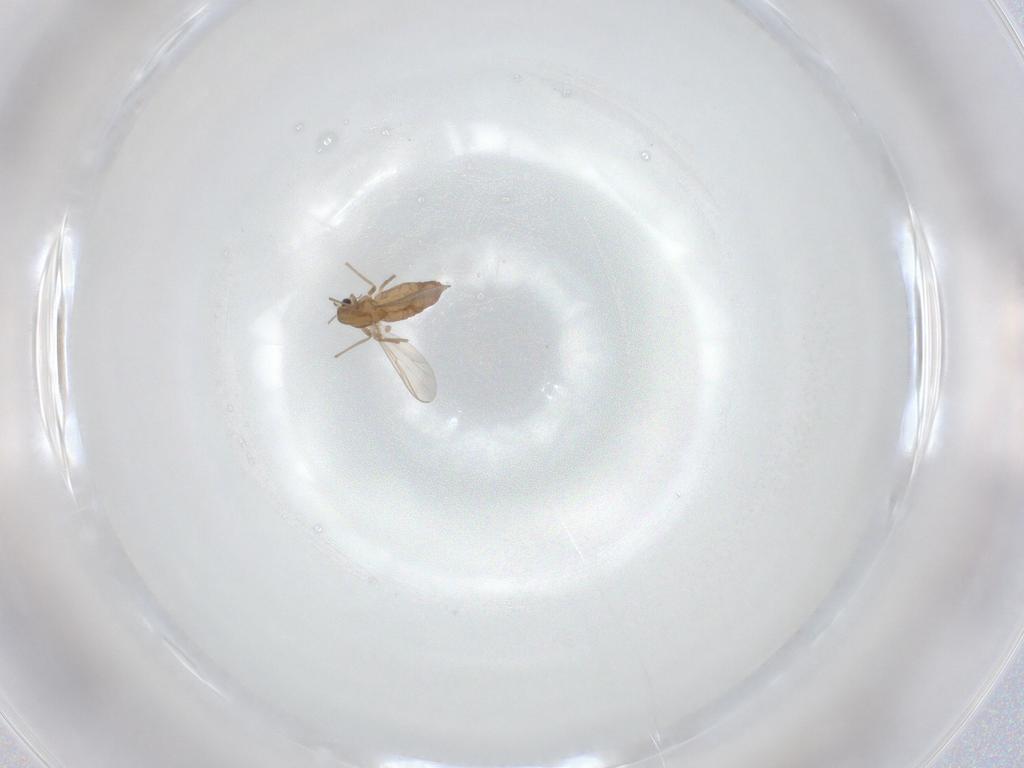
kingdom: Animalia
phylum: Arthropoda
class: Insecta
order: Diptera
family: Chironomidae
